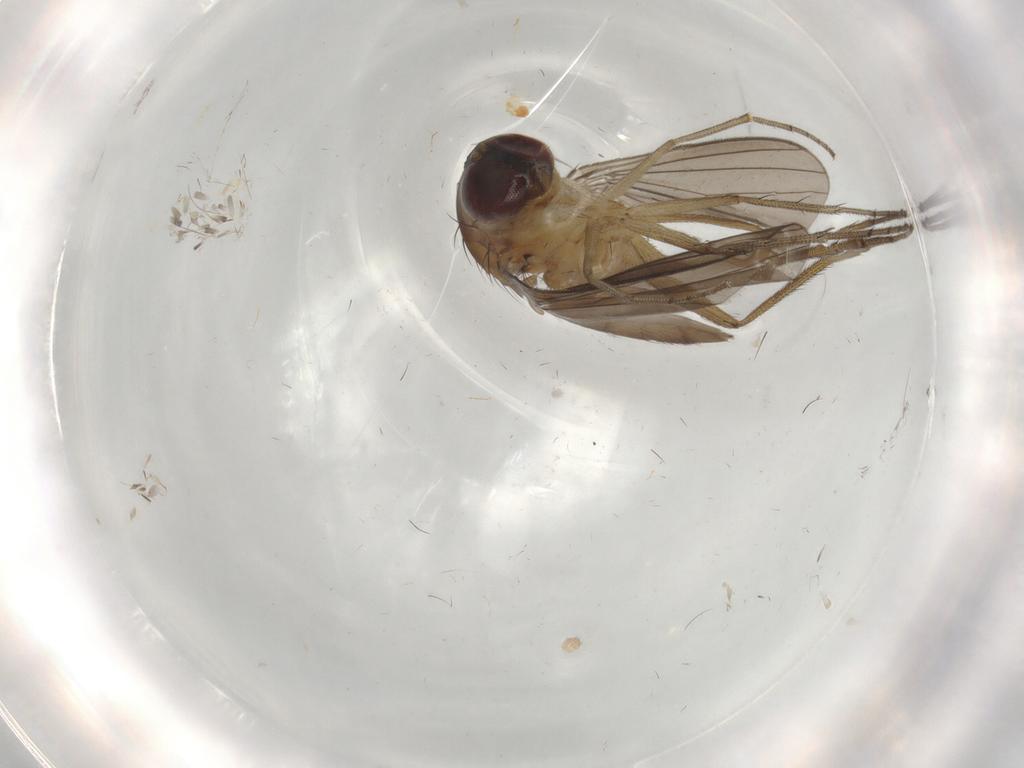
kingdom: Animalia
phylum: Arthropoda
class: Insecta
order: Diptera
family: Dolichopodidae
